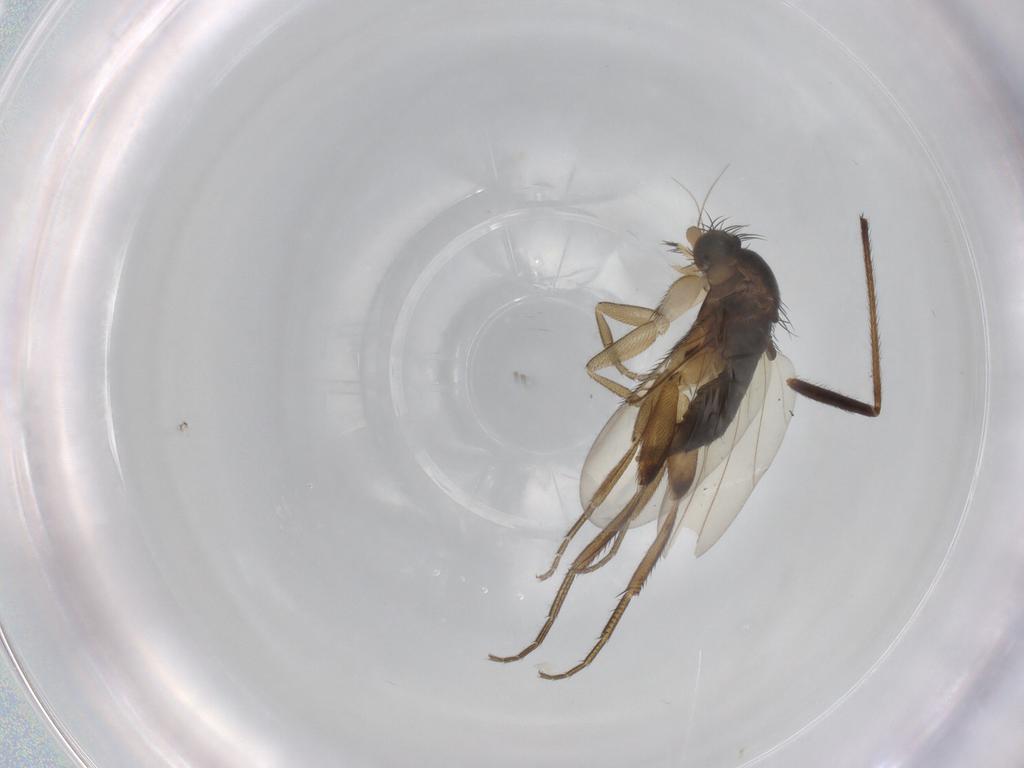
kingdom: Animalia
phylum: Arthropoda
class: Insecta
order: Diptera
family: Phoridae
